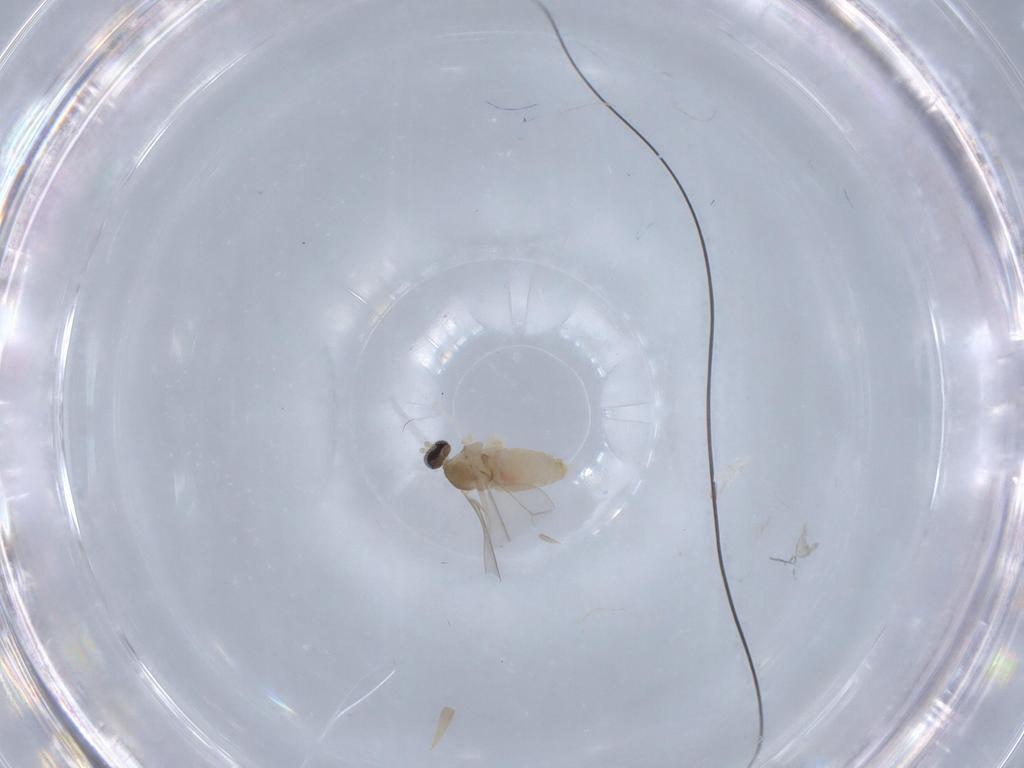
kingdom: Animalia
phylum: Arthropoda
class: Insecta
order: Diptera
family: Cecidomyiidae
